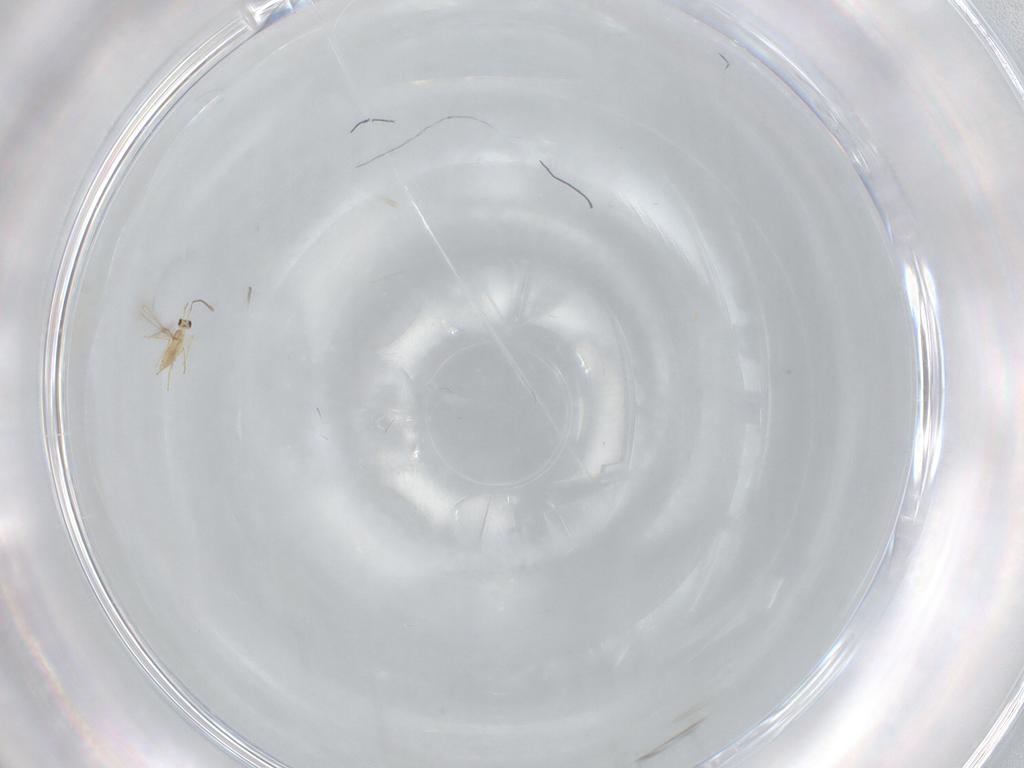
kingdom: Animalia
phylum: Arthropoda
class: Insecta
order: Hymenoptera
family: Mymaridae
